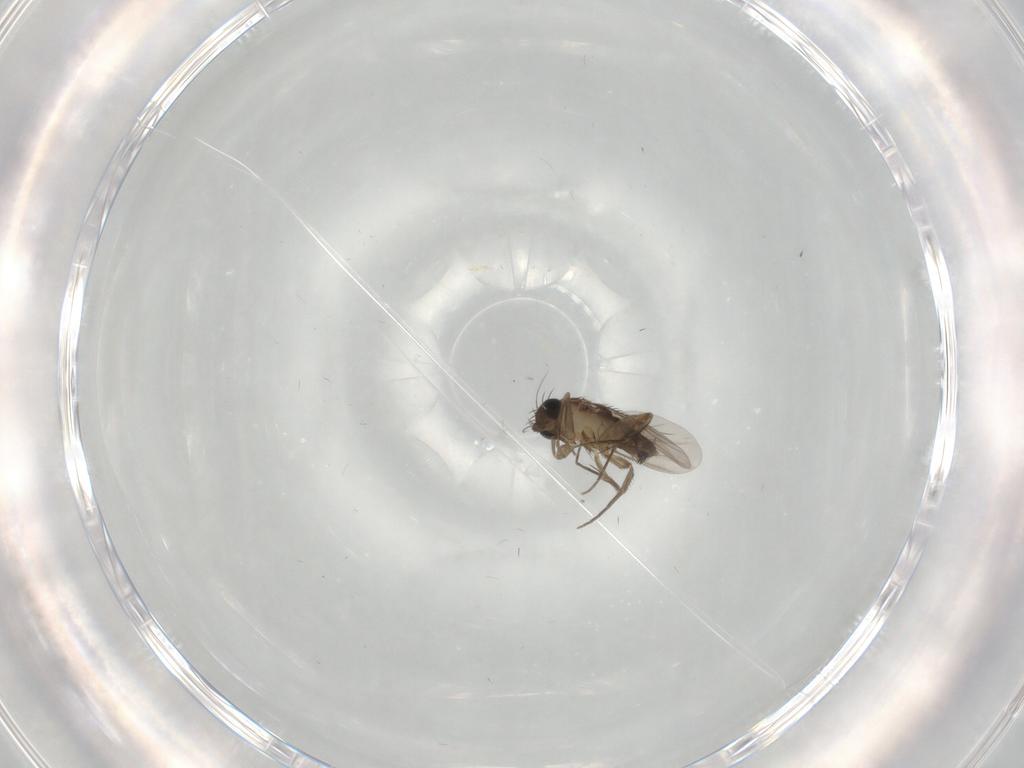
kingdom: Animalia
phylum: Arthropoda
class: Insecta
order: Diptera
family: Phoridae
